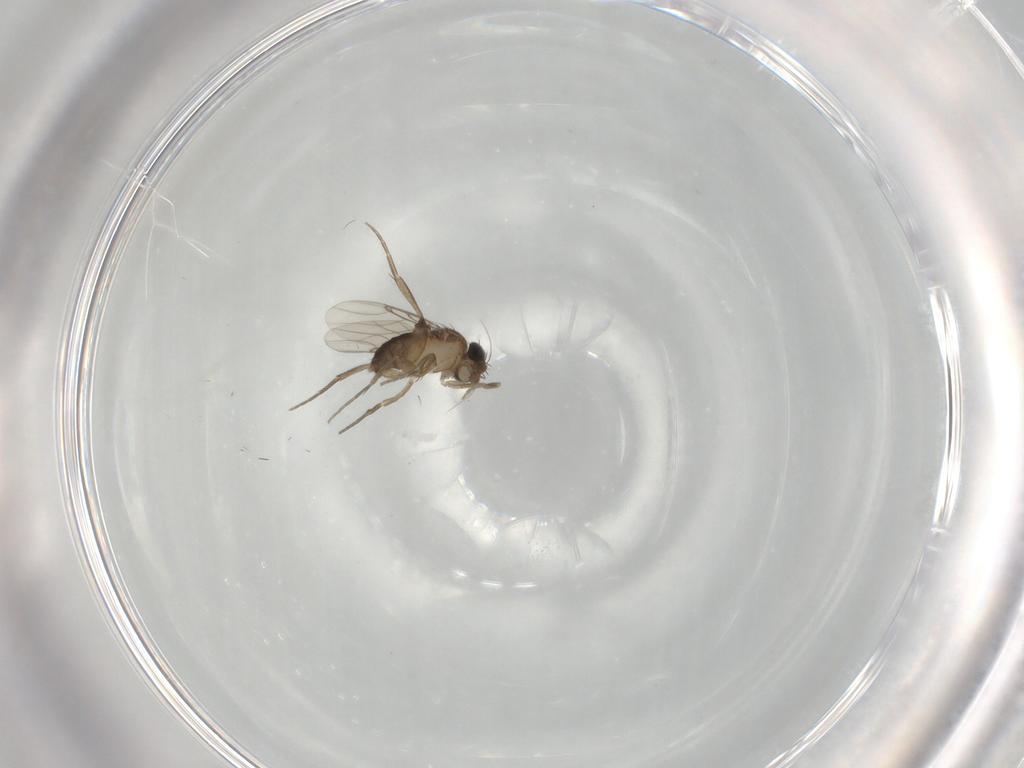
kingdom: Animalia
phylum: Arthropoda
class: Insecta
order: Diptera
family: Phoridae
